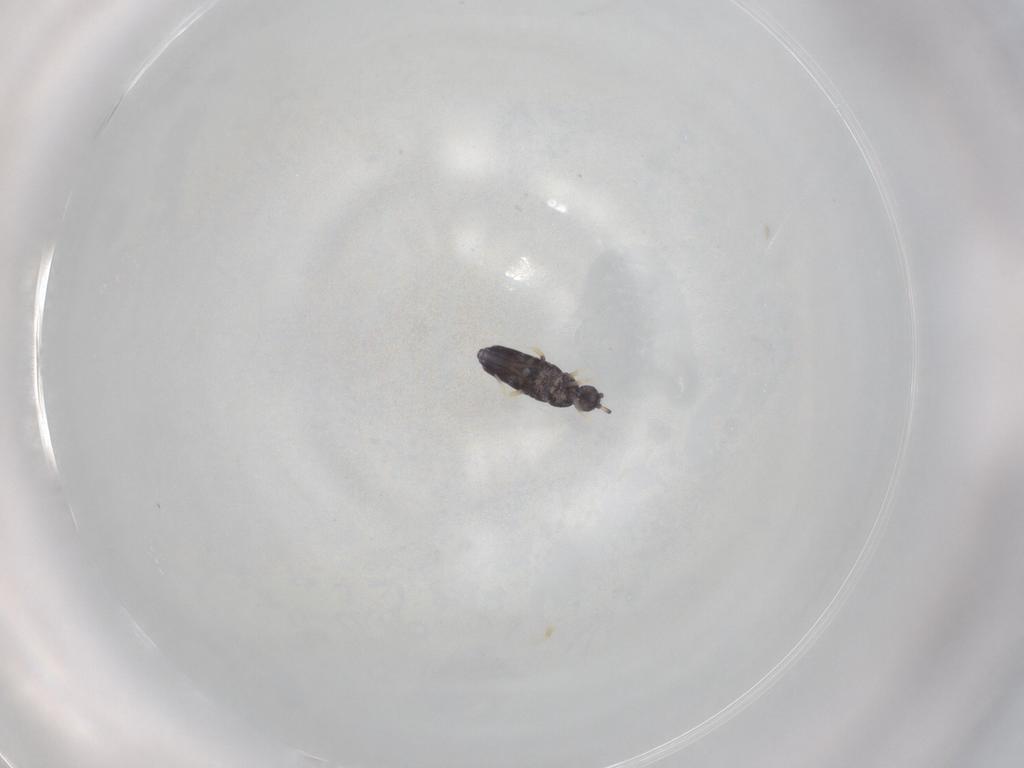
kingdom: Animalia
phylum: Arthropoda
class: Collembola
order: Entomobryomorpha
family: Entomobryidae
